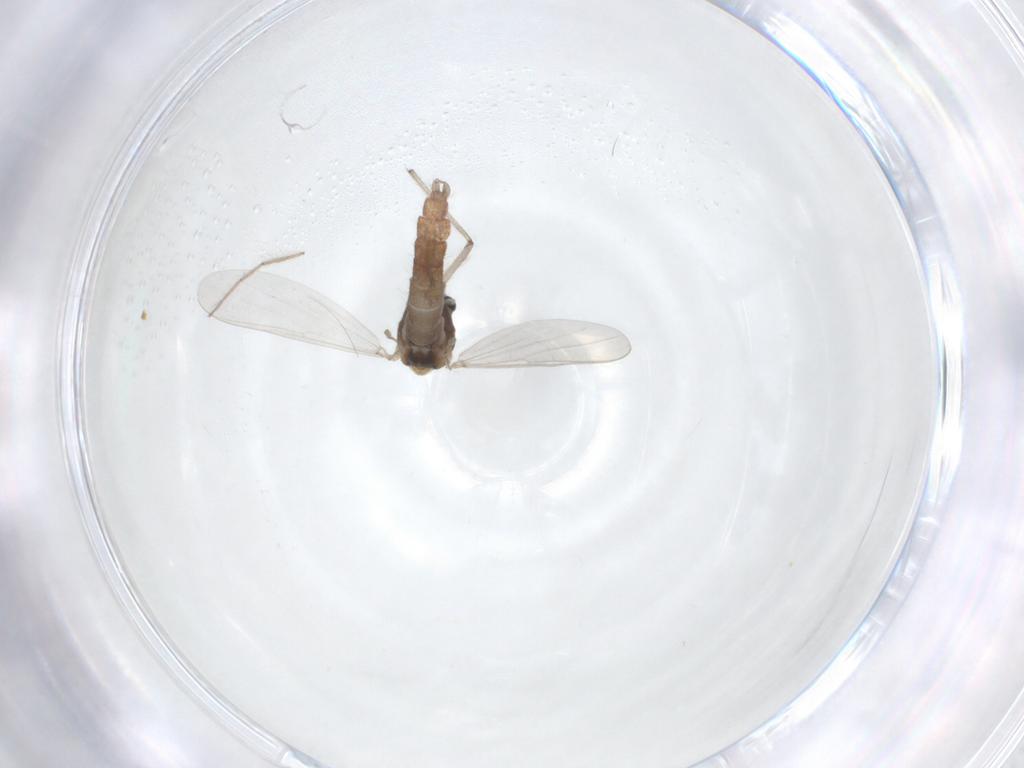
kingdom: Animalia
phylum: Arthropoda
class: Insecta
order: Diptera
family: Chironomidae
